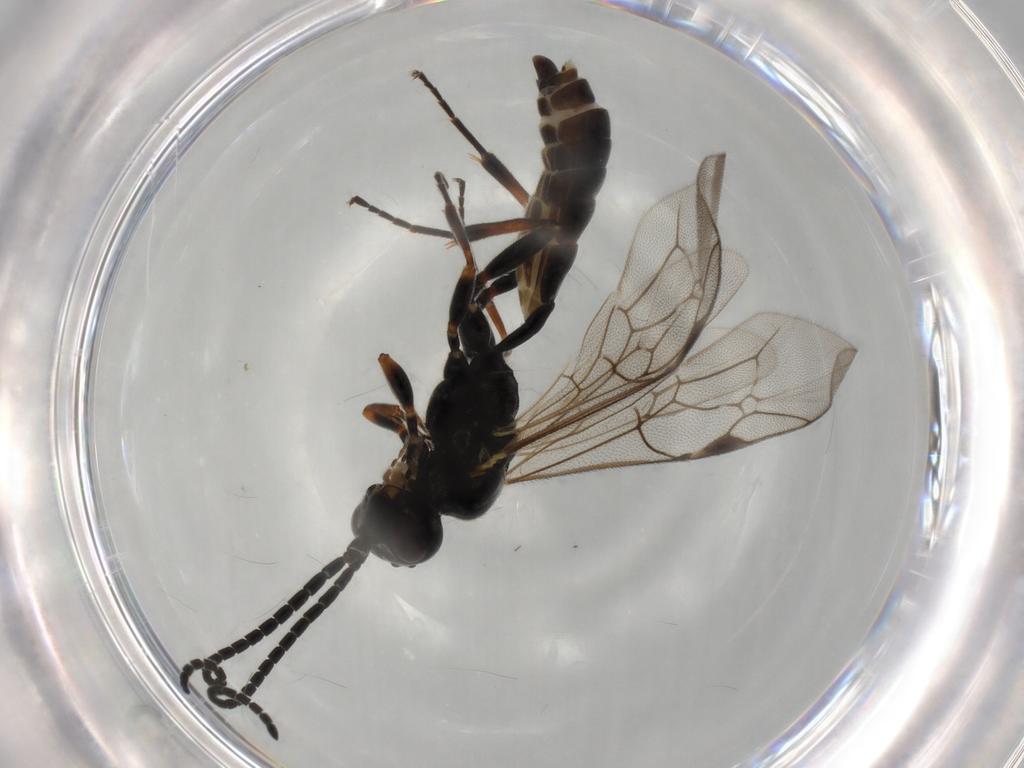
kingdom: Animalia
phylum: Arthropoda
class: Insecta
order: Hymenoptera
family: Ichneumonidae
